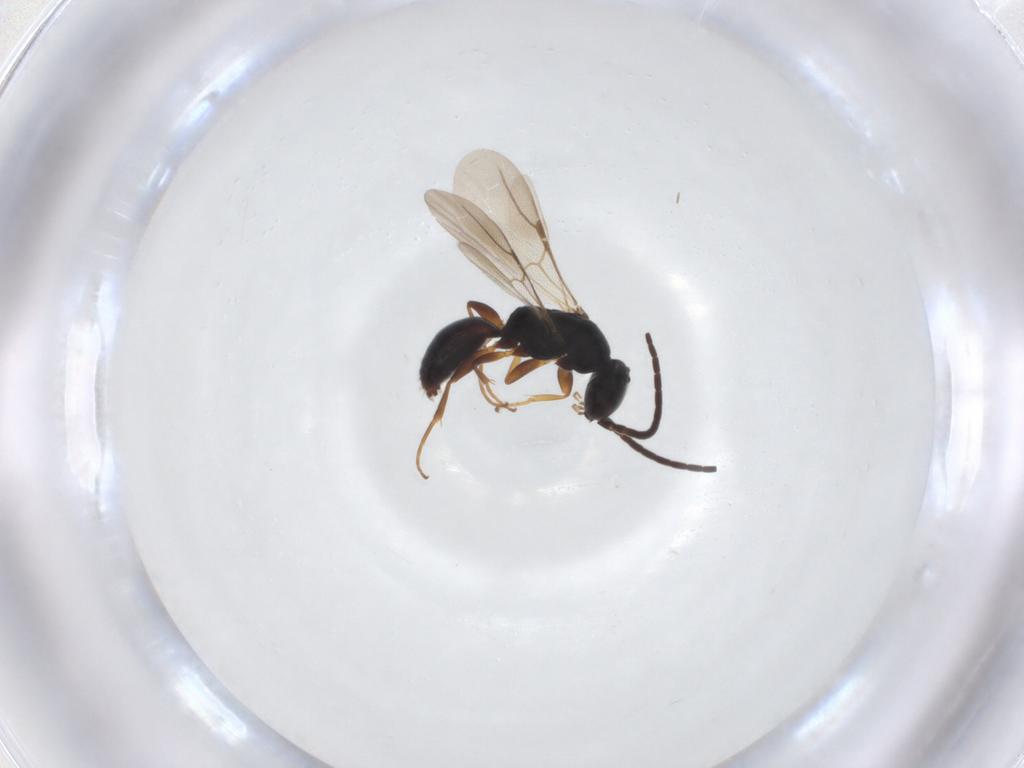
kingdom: Animalia
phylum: Arthropoda
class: Insecta
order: Hymenoptera
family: Bethylidae
